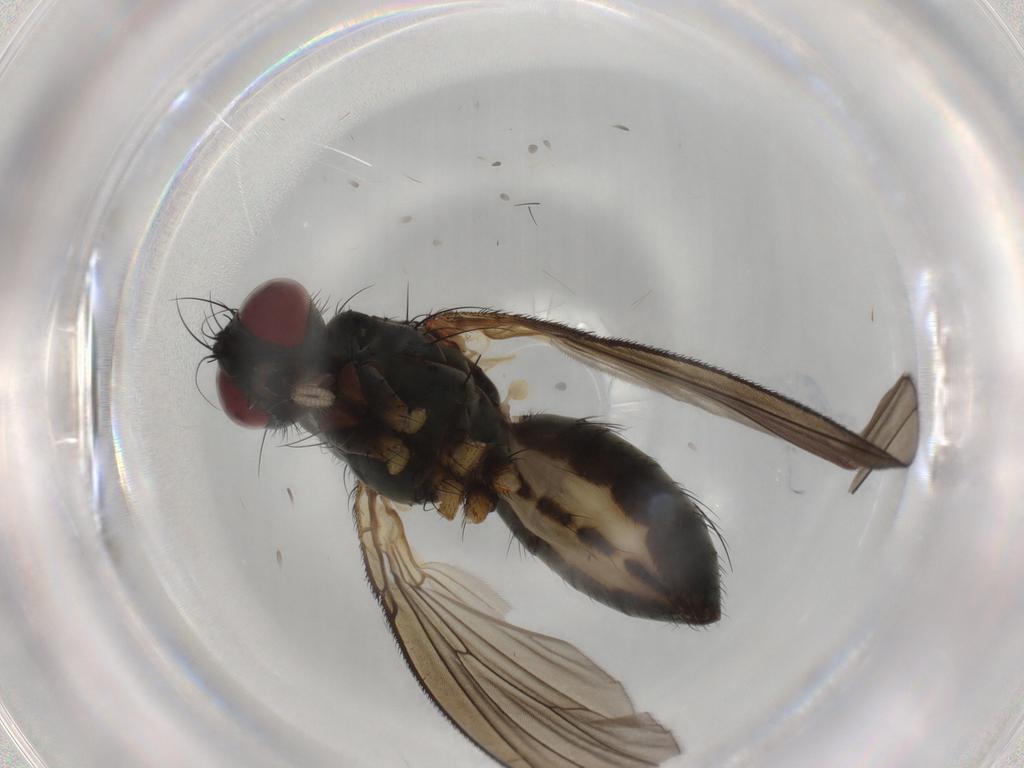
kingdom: Animalia
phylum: Arthropoda
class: Insecta
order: Diptera
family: Muscidae
